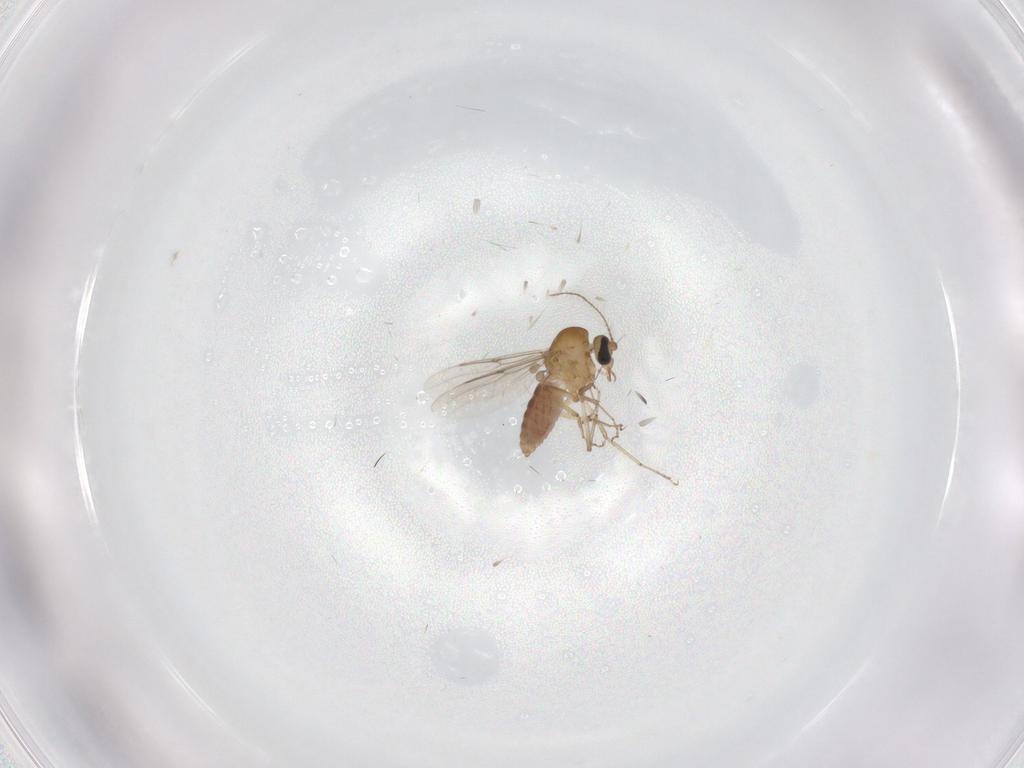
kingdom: Animalia
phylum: Arthropoda
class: Insecta
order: Diptera
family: Sciaridae
